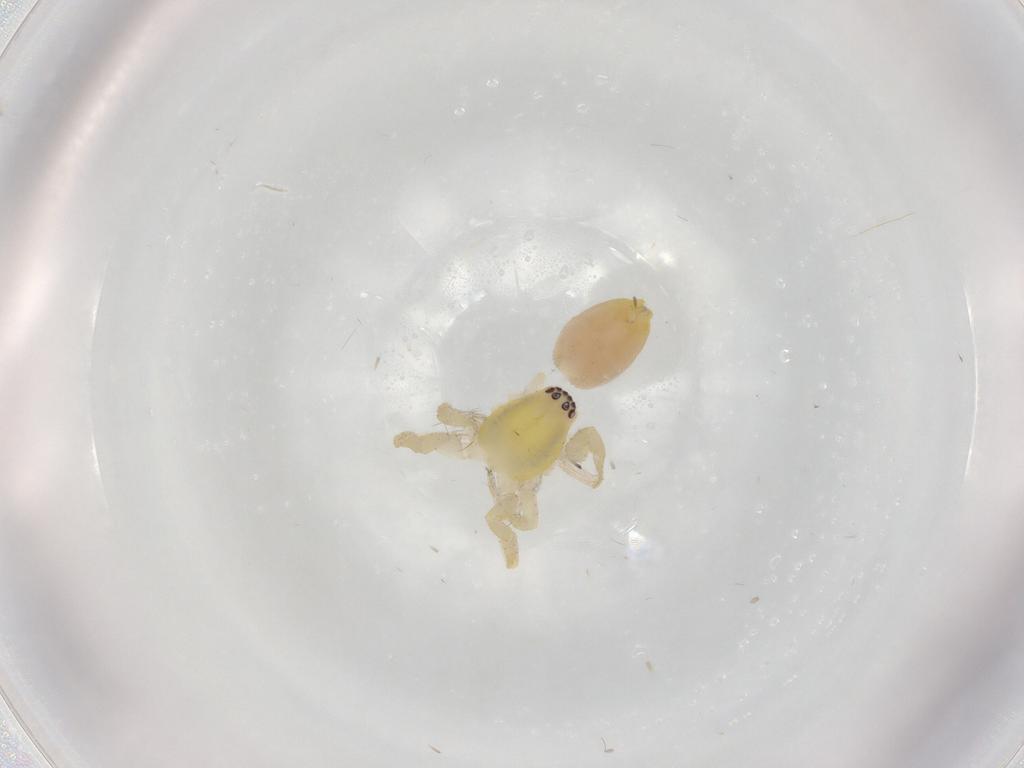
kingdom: Animalia
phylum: Arthropoda
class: Arachnida
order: Araneae
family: Anyphaenidae
